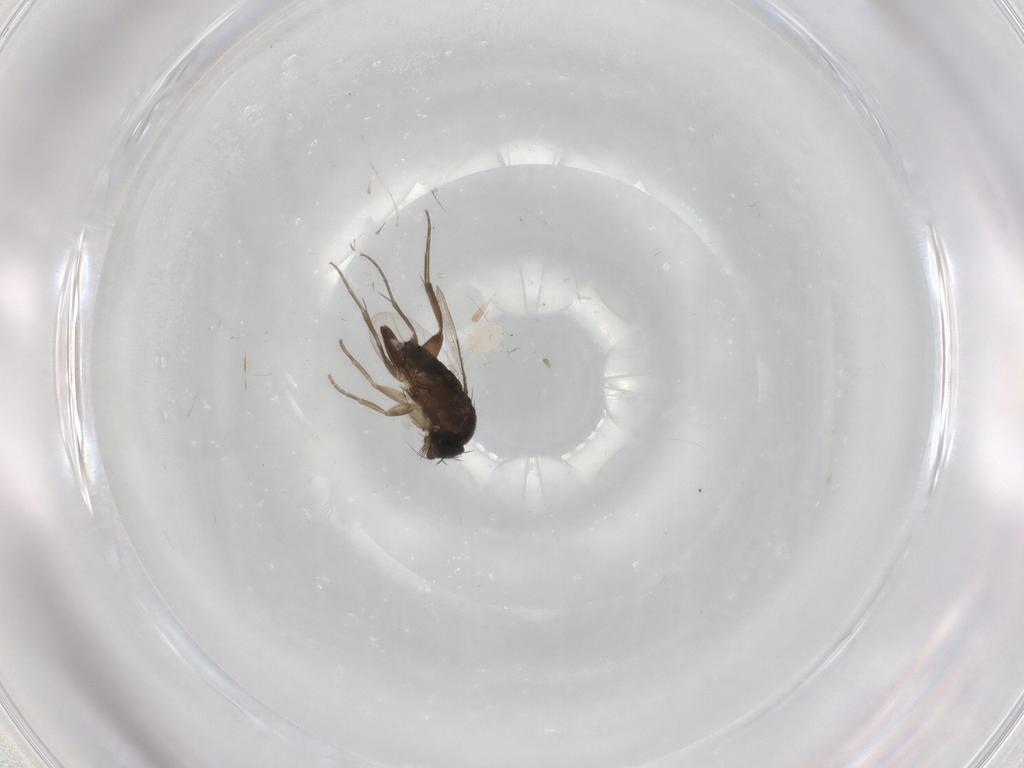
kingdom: Animalia
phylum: Arthropoda
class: Insecta
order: Diptera
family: Phoridae
